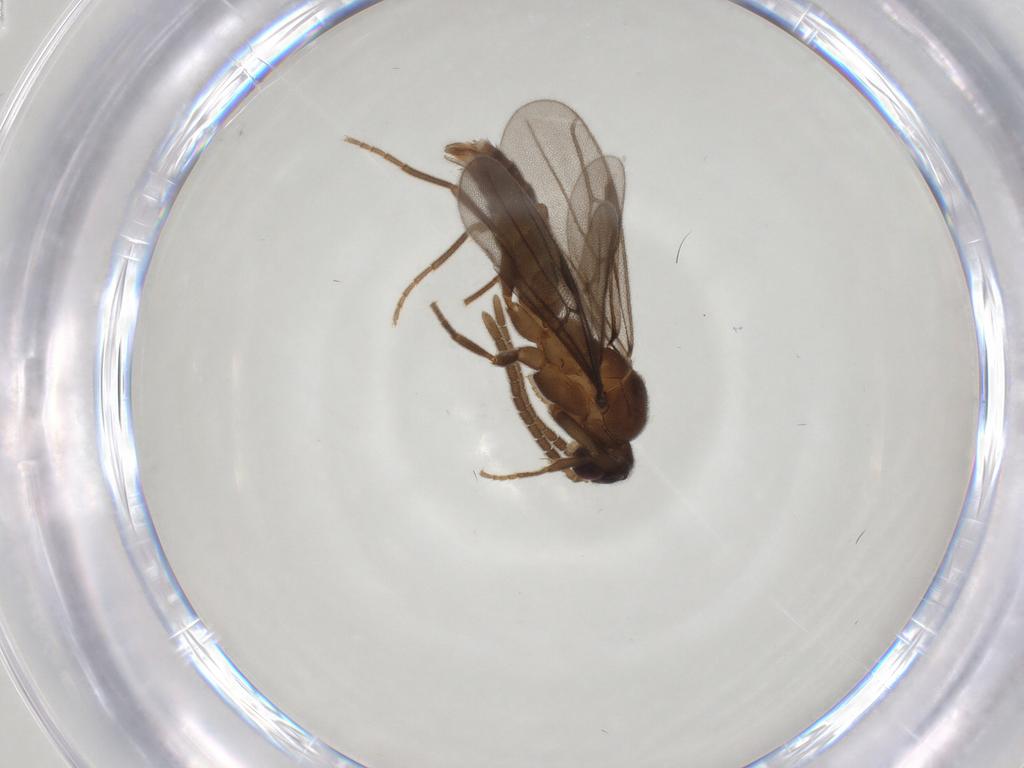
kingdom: Animalia
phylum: Arthropoda
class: Insecta
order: Hymenoptera
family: Formicidae
